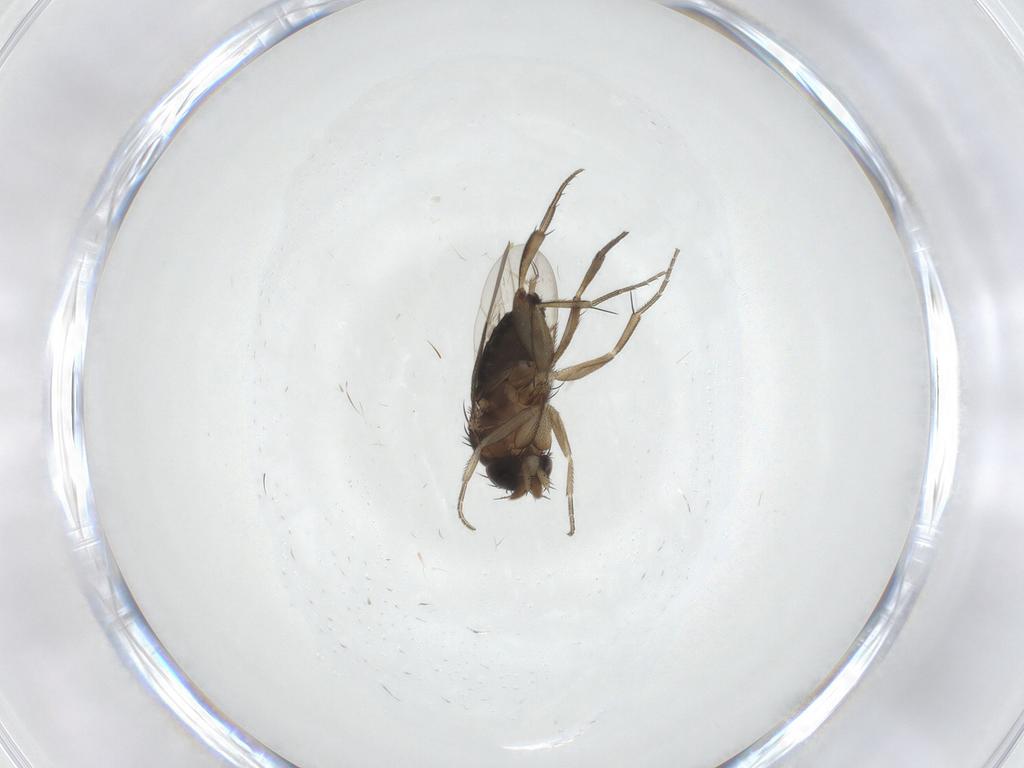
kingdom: Animalia
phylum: Arthropoda
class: Insecta
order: Diptera
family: Phoridae
